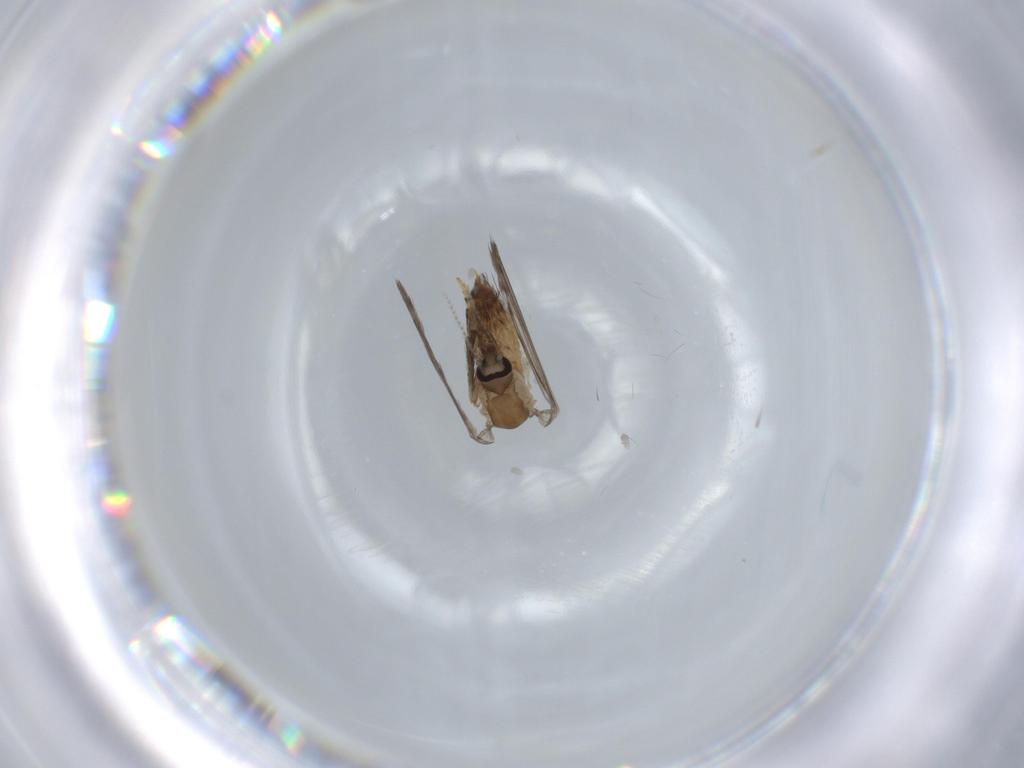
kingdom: Animalia
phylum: Arthropoda
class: Insecta
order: Diptera
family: Psychodidae
